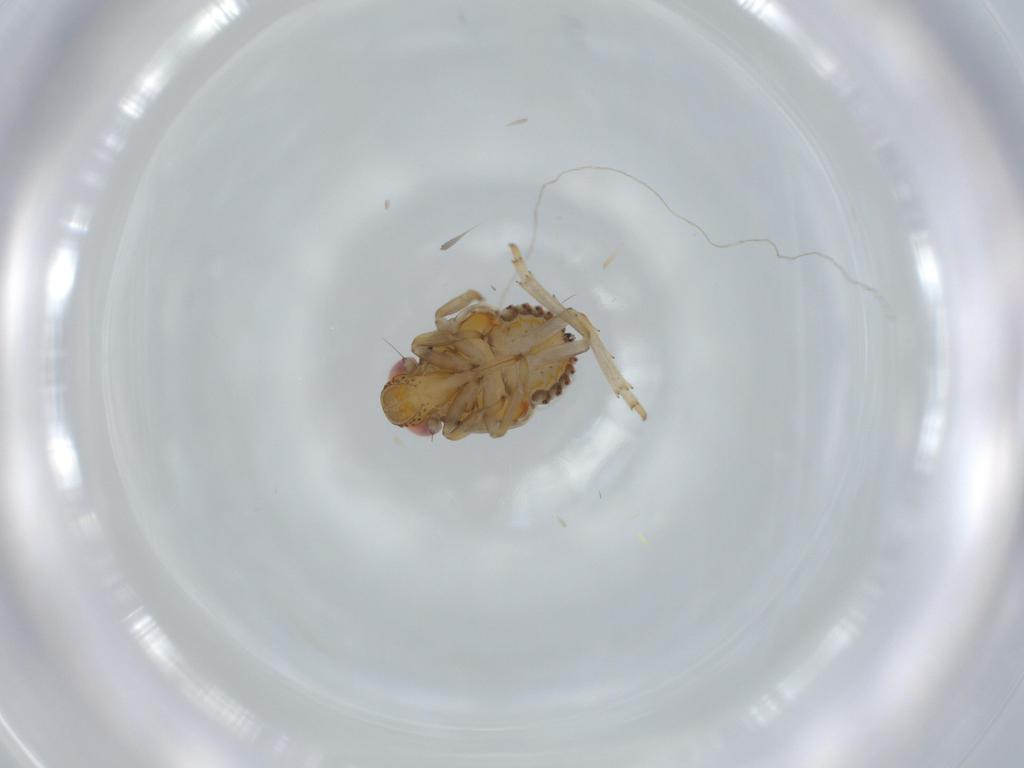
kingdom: Animalia
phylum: Arthropoda
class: Insecta
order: Hemiptera
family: Issidae
